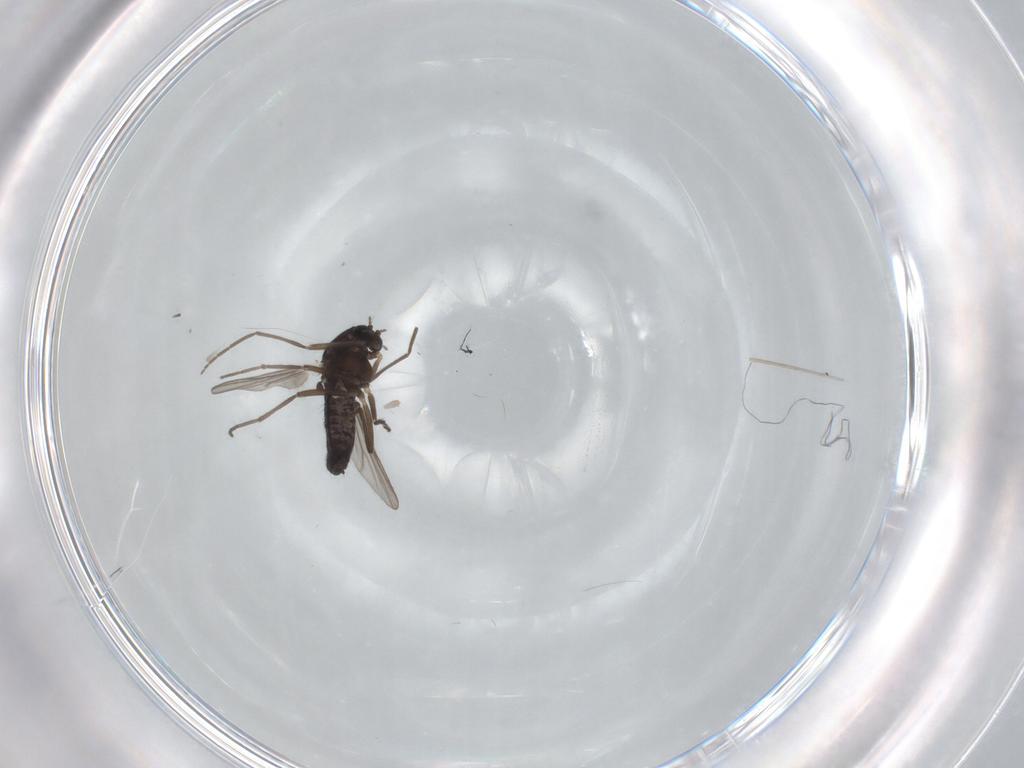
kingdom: Animalia
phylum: Arthropoda
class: Insecta
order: Diptera
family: Chironomidae
